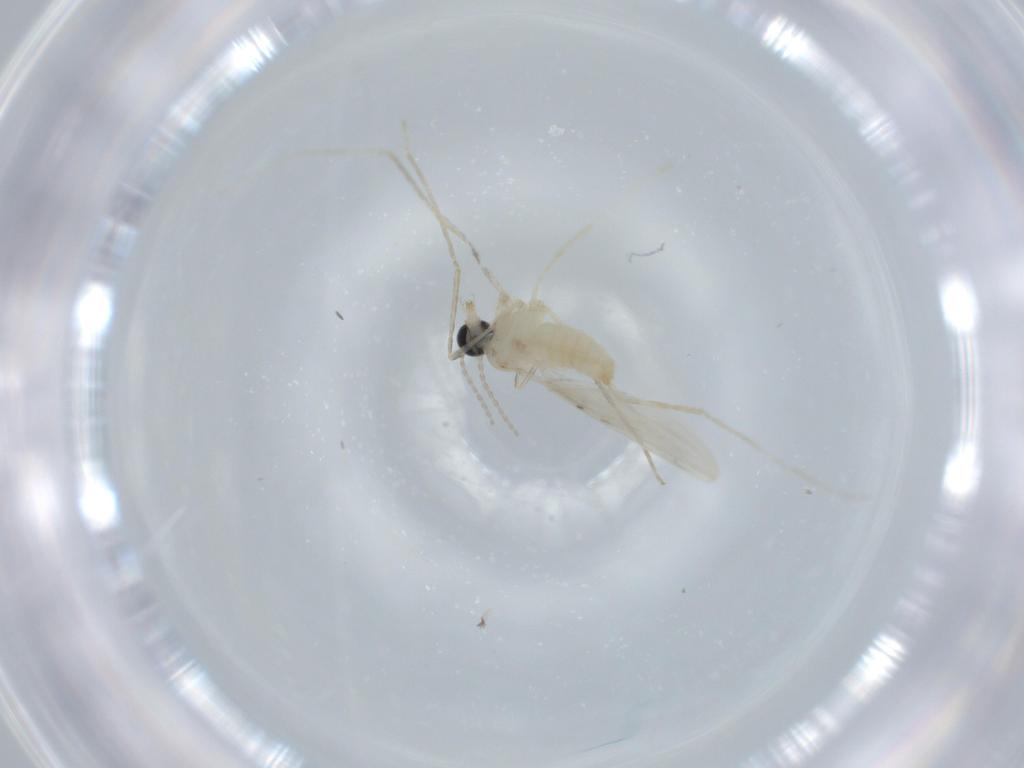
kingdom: Animalia
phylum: Arthropoda
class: Insecta
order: Diptera
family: Cecidomyiidae
